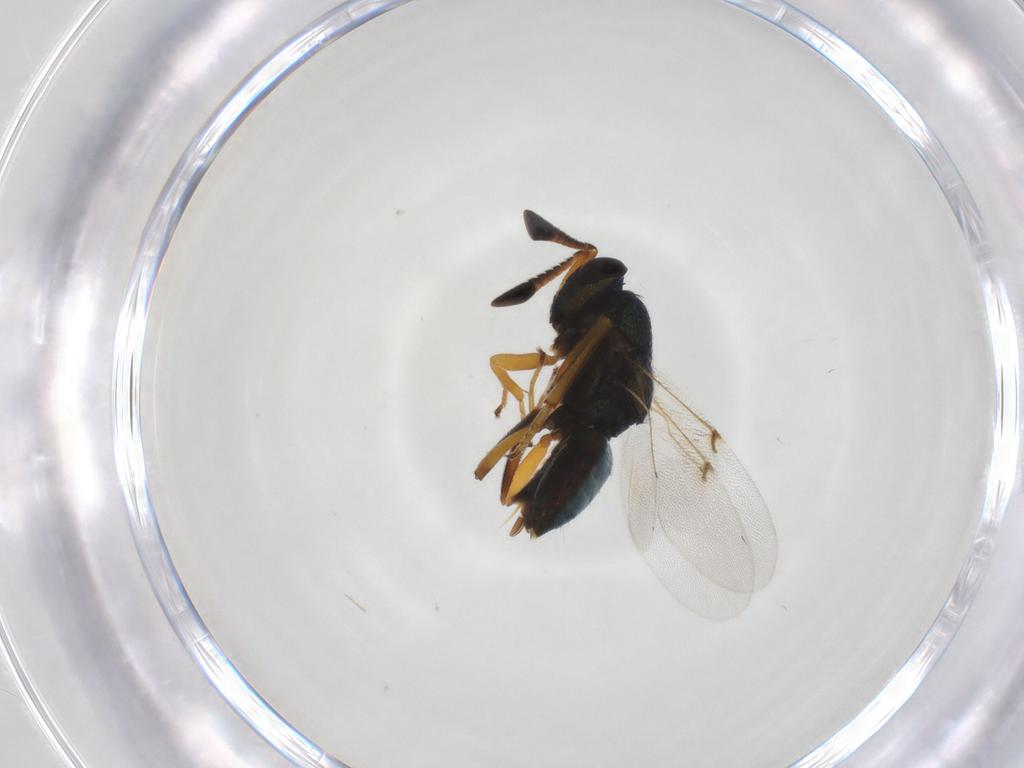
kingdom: Animalia
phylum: Arthropoda
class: Insecta
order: Hymenoptera
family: Encyrtidae
